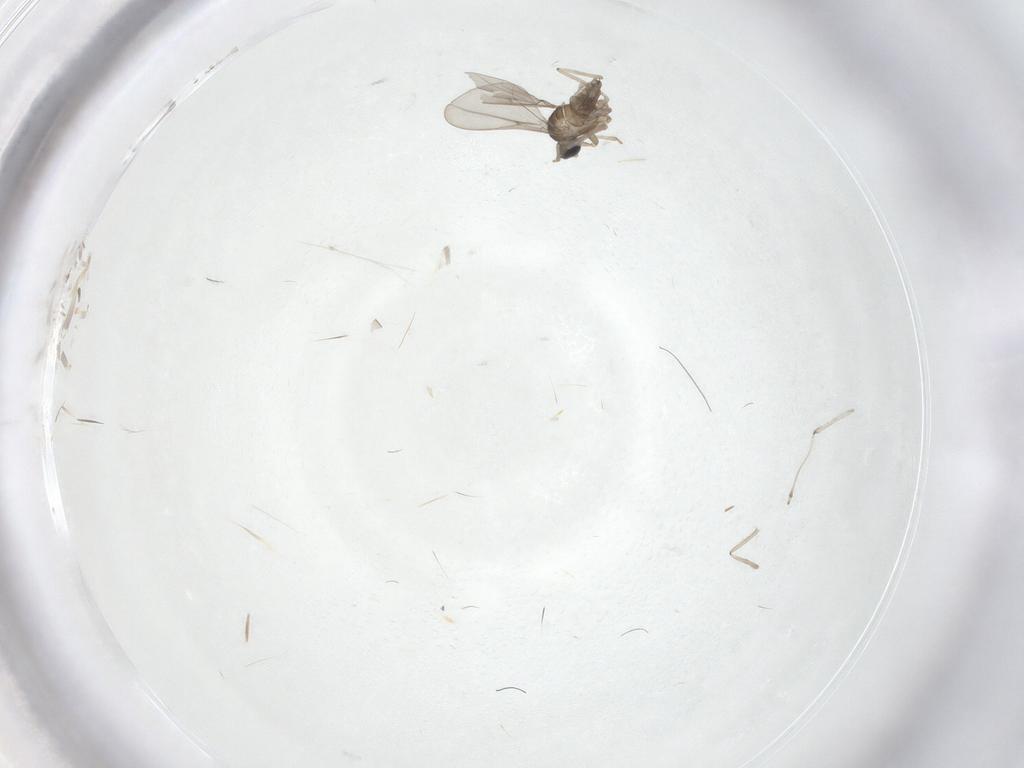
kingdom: Animalia
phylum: Arthropoda
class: Insecta
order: Diptera
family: Cecidomyiidae
